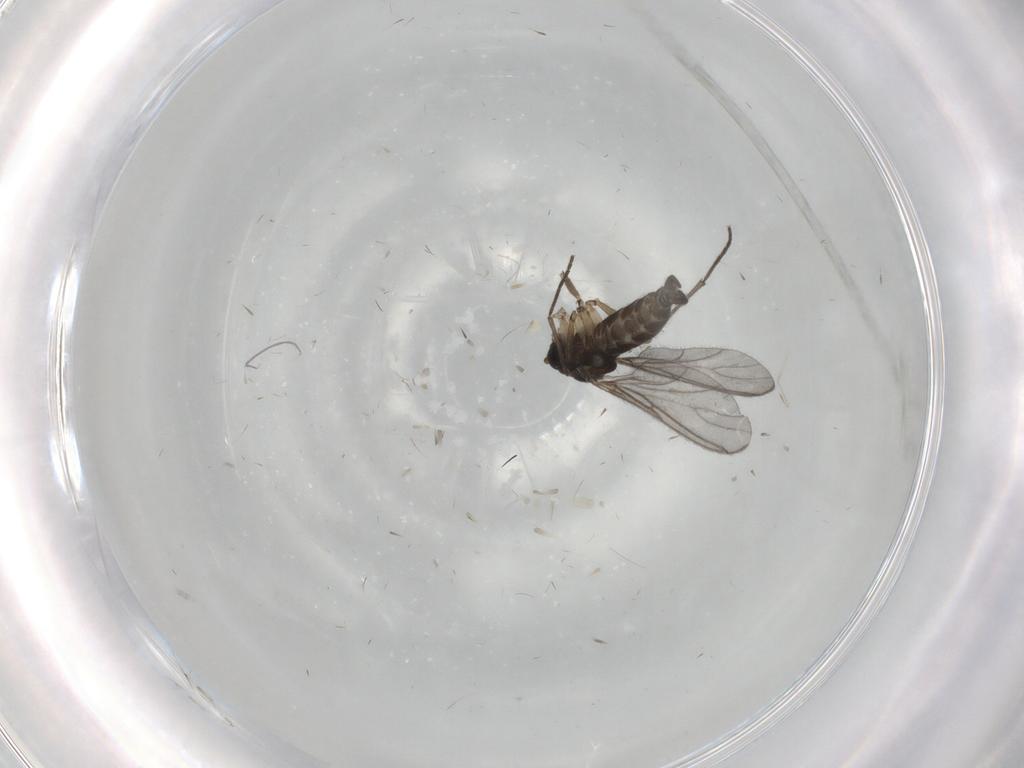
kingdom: Animalia
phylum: Arthropoda
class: Insecta
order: Diptera
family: Sciaridae
